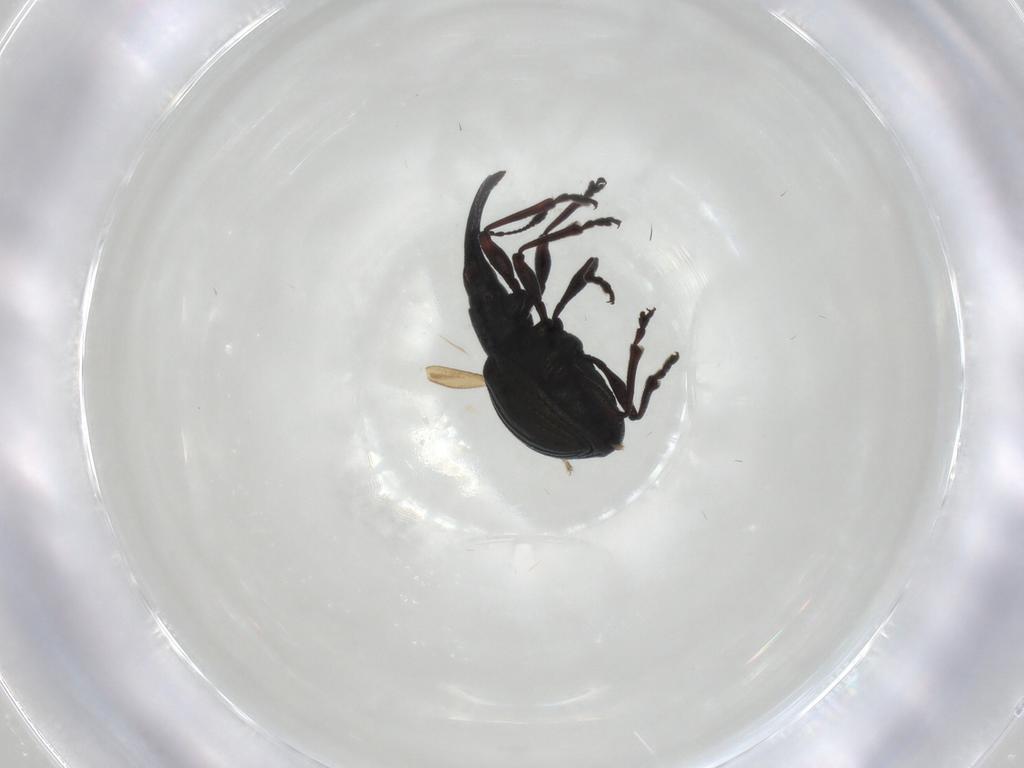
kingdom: Animalia
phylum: Arthropoda
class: Insecta
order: Coleoptera
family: Brentidae
